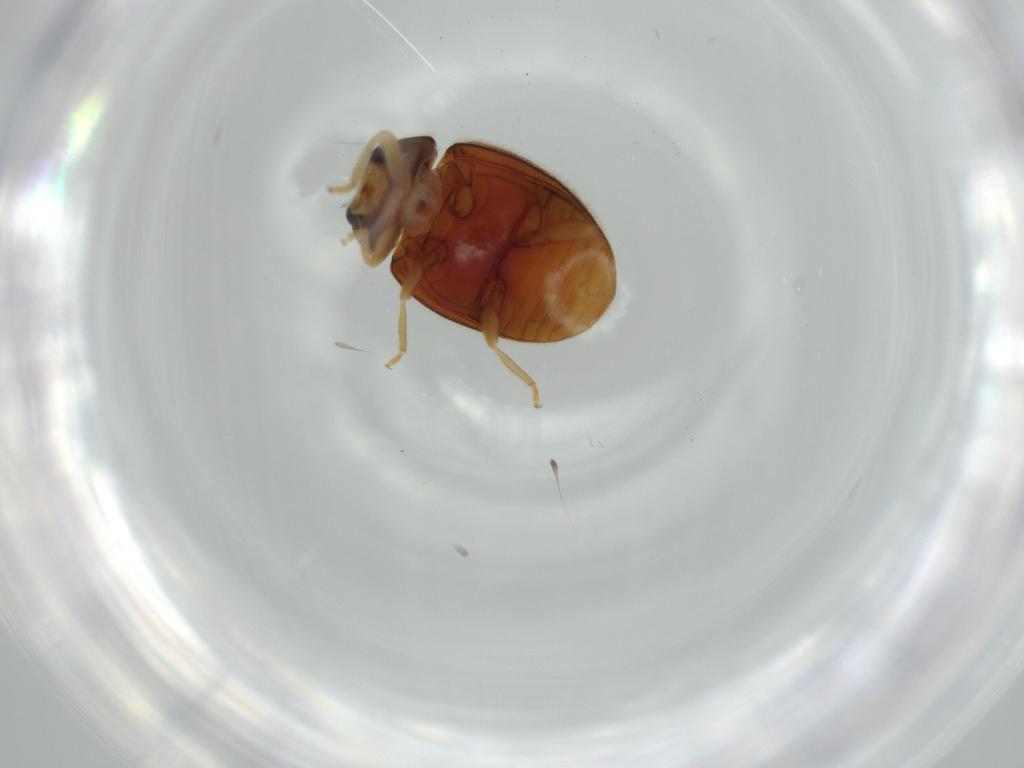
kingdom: Animalia
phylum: Arthropoda
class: Insecta
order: Coleoptera
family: Coccinellidae
